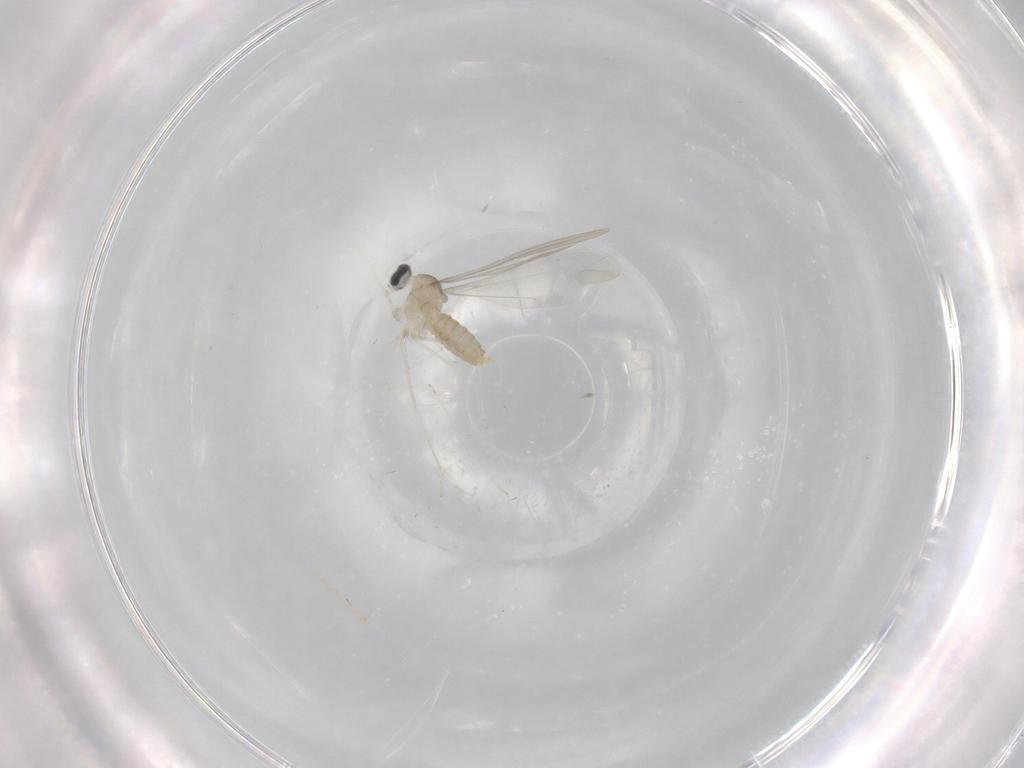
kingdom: Animalia
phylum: Arthropoda
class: Insecta
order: Diptera
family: Cecidomyiidae
